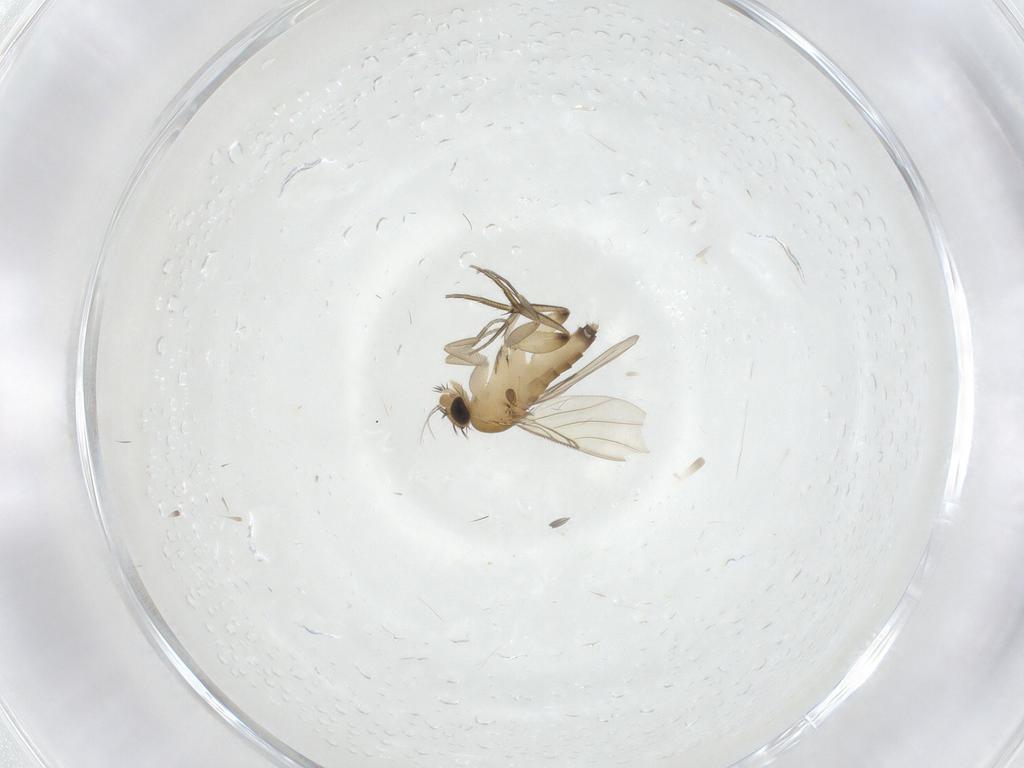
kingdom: Animalia
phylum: Arthropoda
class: Insecta
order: Diptera
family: Phoridae
